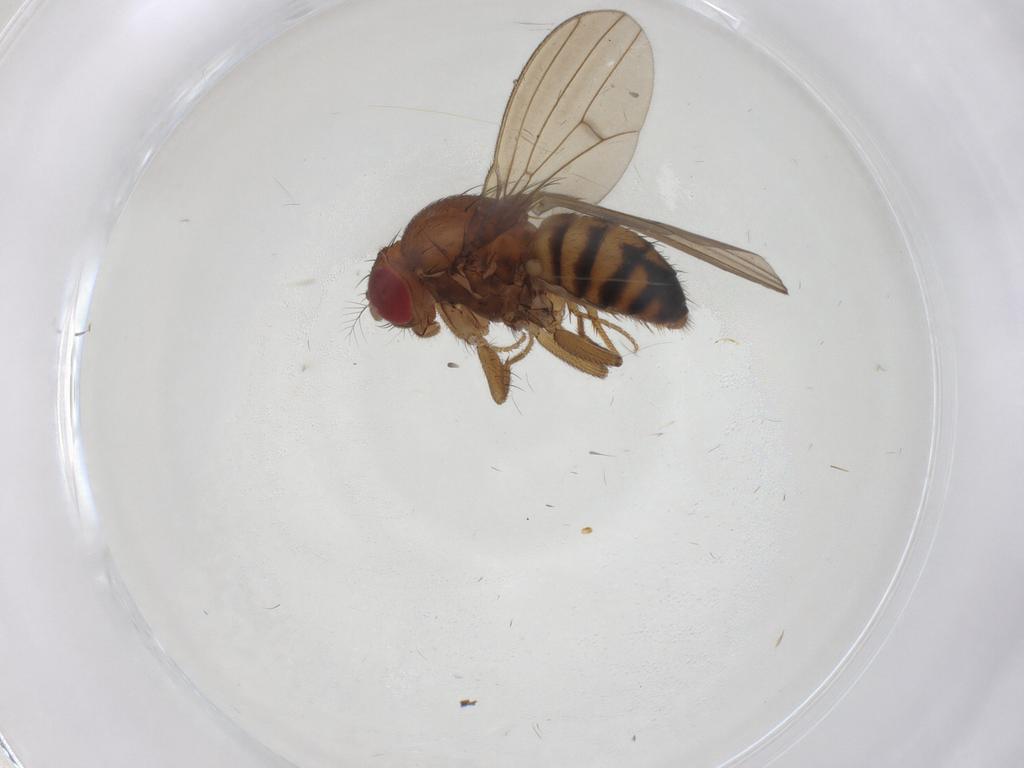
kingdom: Animalia
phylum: Arthropoda
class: Insecta
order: Diptera
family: Drosophilidae
